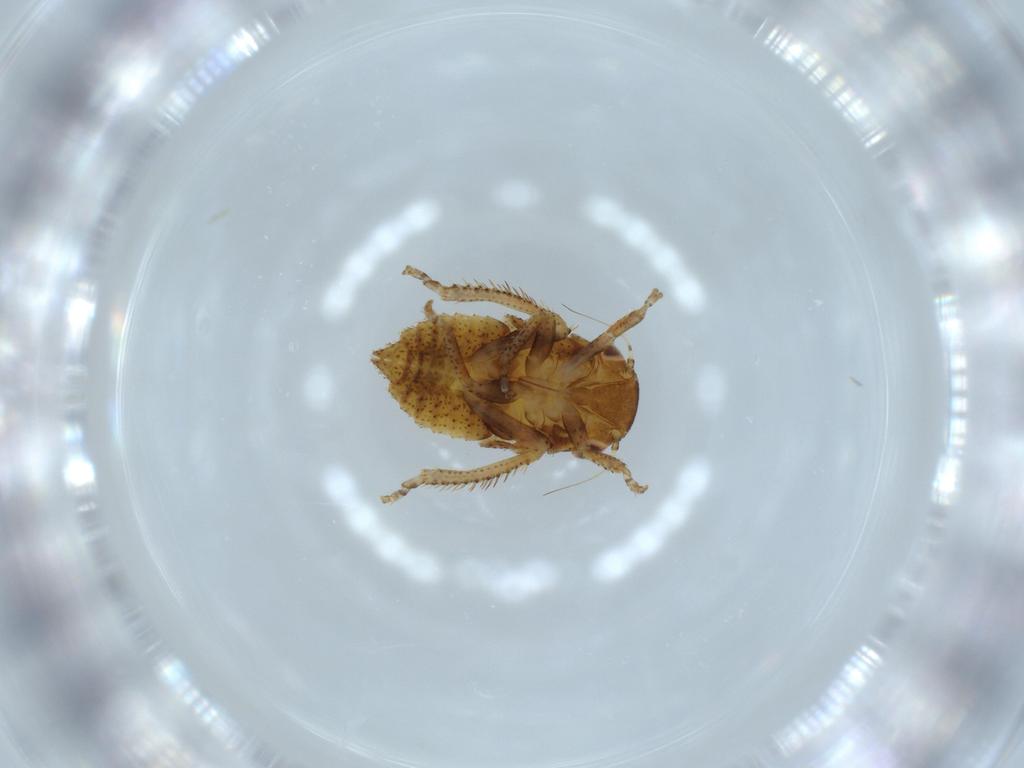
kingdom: Animalia
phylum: Arthropoda
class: Insecta
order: Hemiptera
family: Cicadellidae
